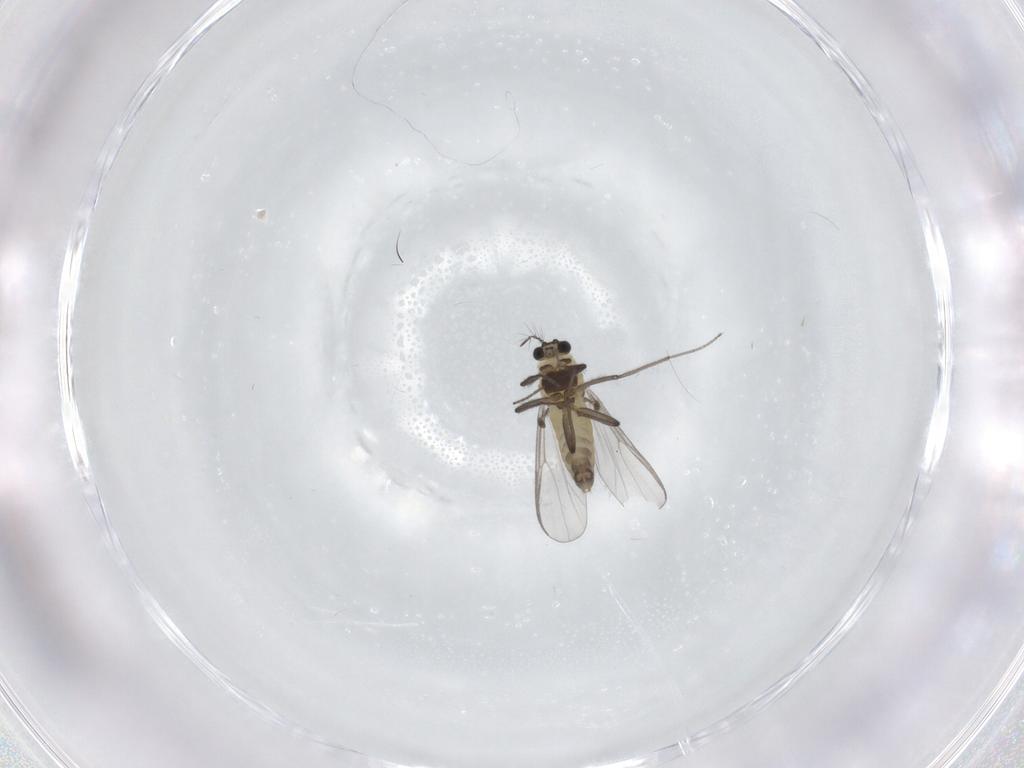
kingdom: Animalia
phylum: Arthropoda
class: Insecta
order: Diptera
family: Chironomidae
